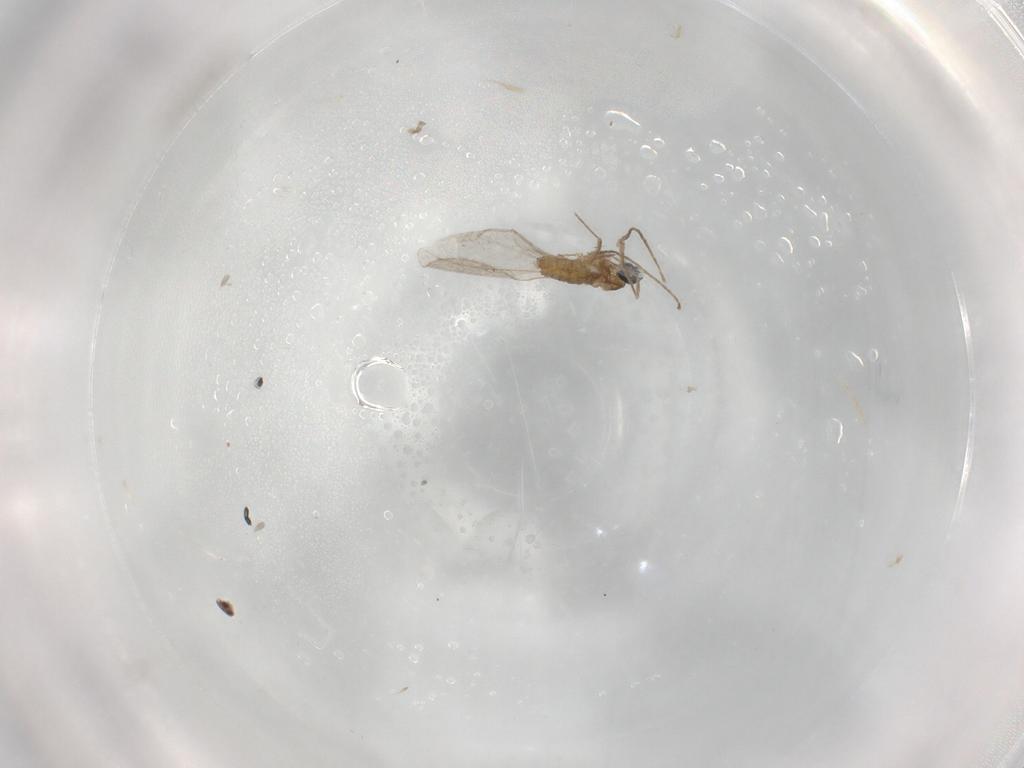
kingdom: Animalia
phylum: Arthropoda
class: Insecta
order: Diptera
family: Cecidomyiidae
